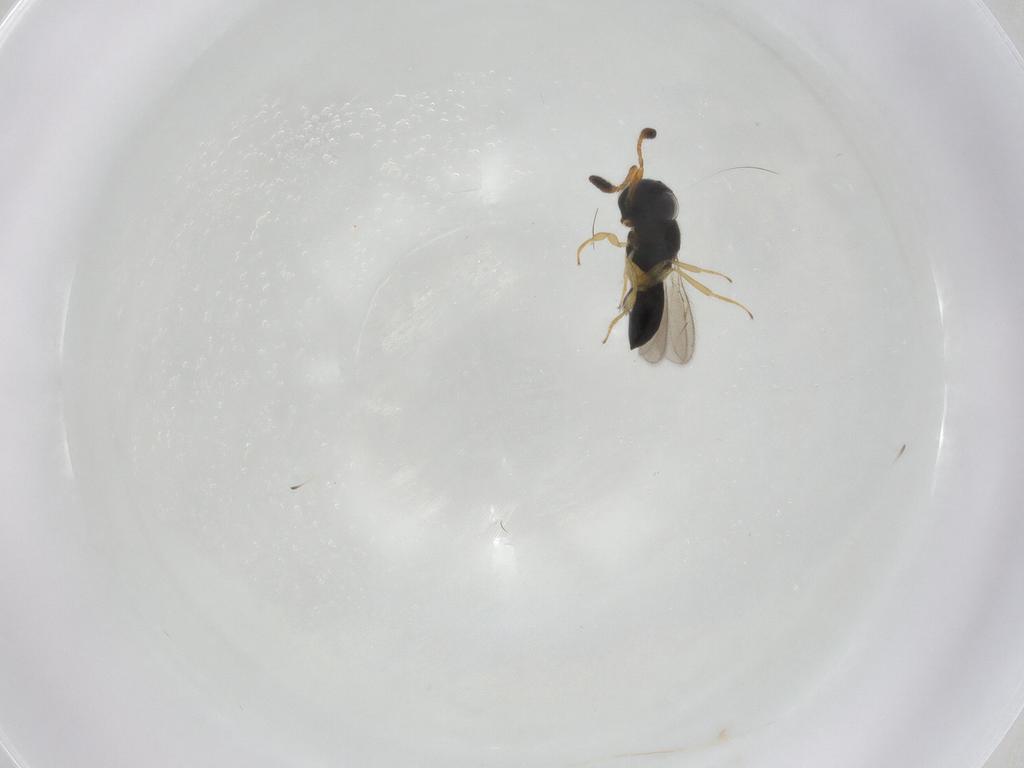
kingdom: Animalia
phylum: Arthropoda
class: Insecta
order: Hymenoptera
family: Scelionidae
